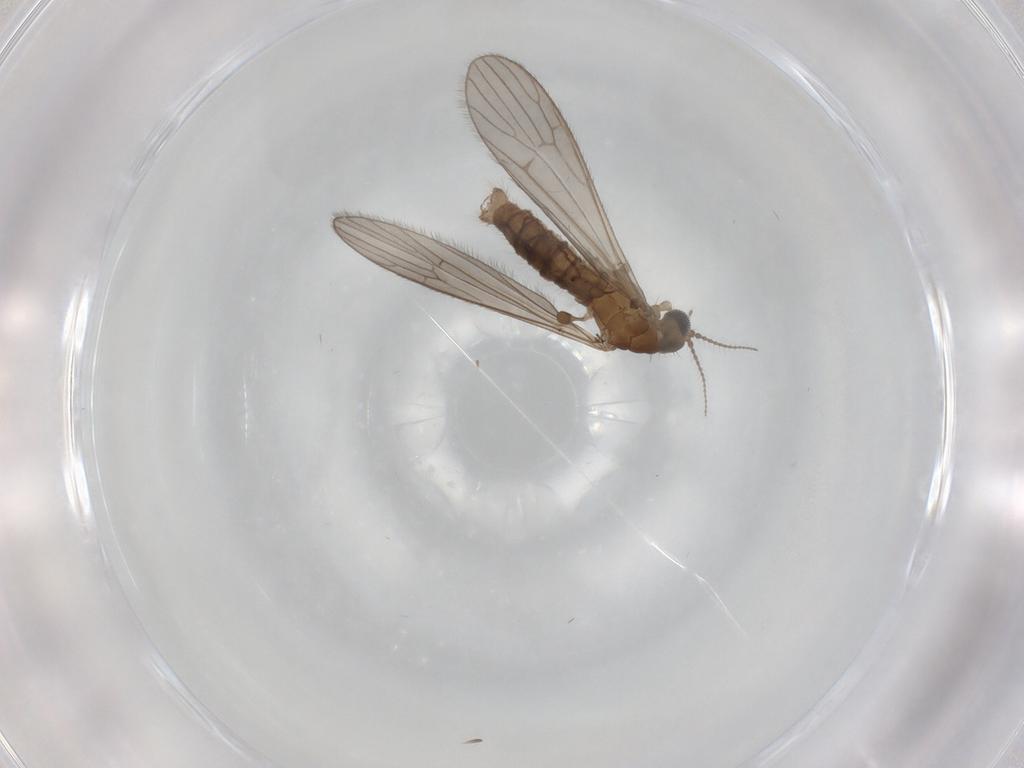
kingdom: Animalia
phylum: Arthropoda
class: Insecta
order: Diptera
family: Limoniidae
